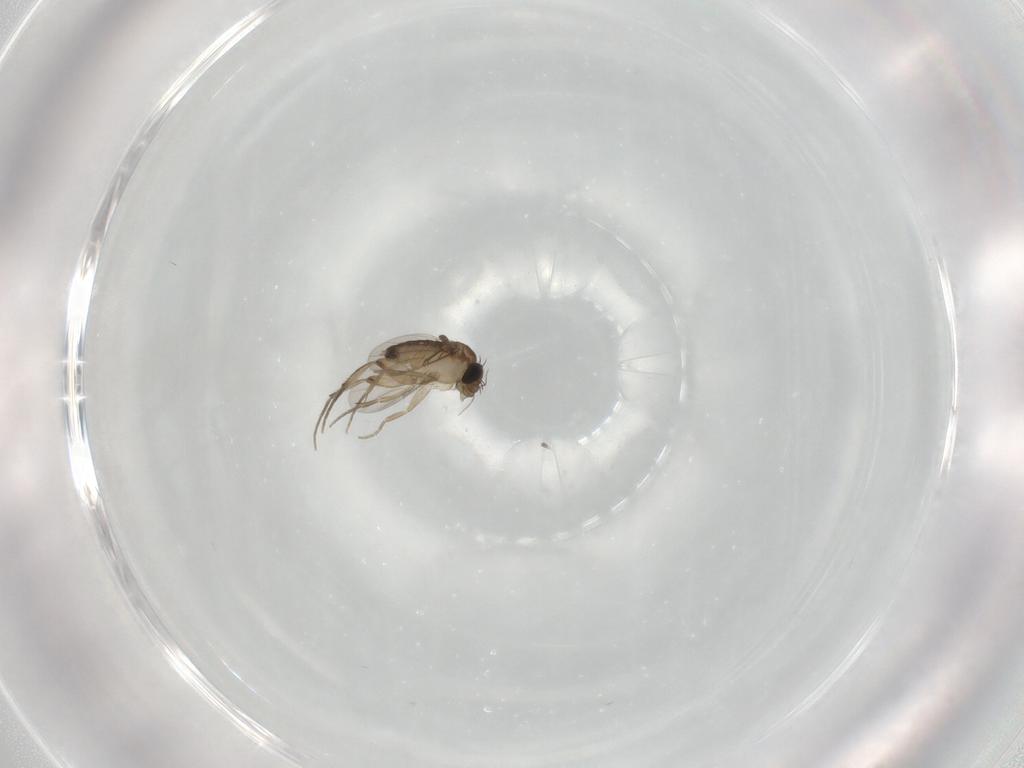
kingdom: Animalia
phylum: Arthropoda
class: Insecta
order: Diptera
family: Phoridae
